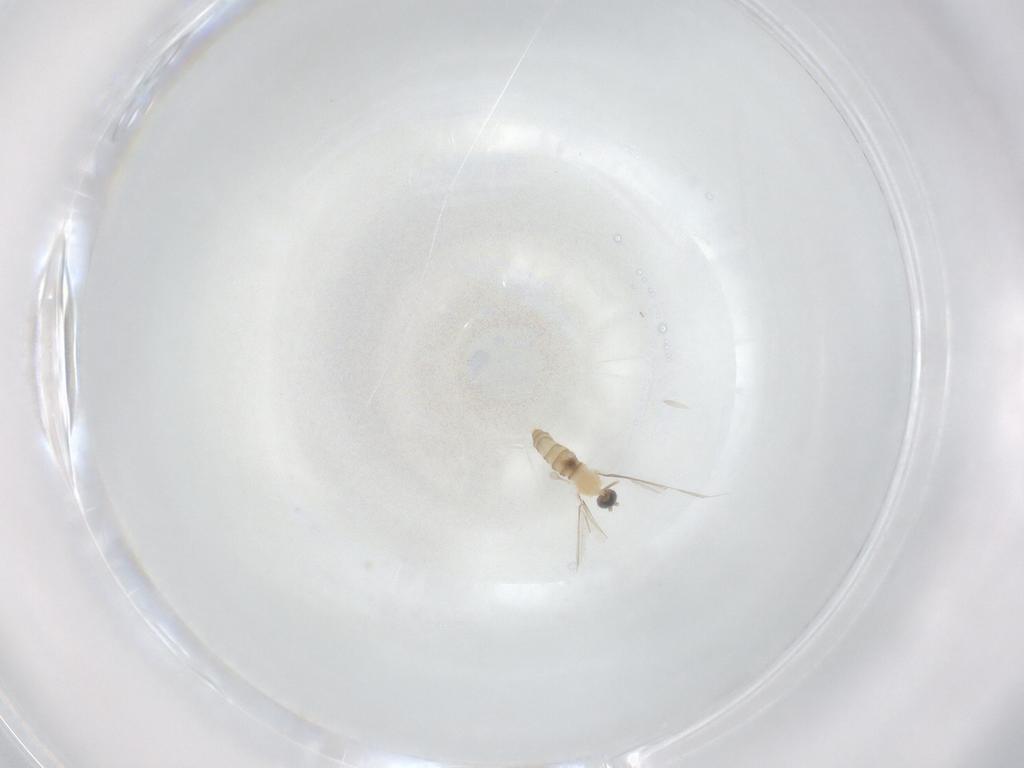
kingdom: Animalia
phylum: Arthropoda
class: Insecta
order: Diptera
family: Cecidomyiidae
